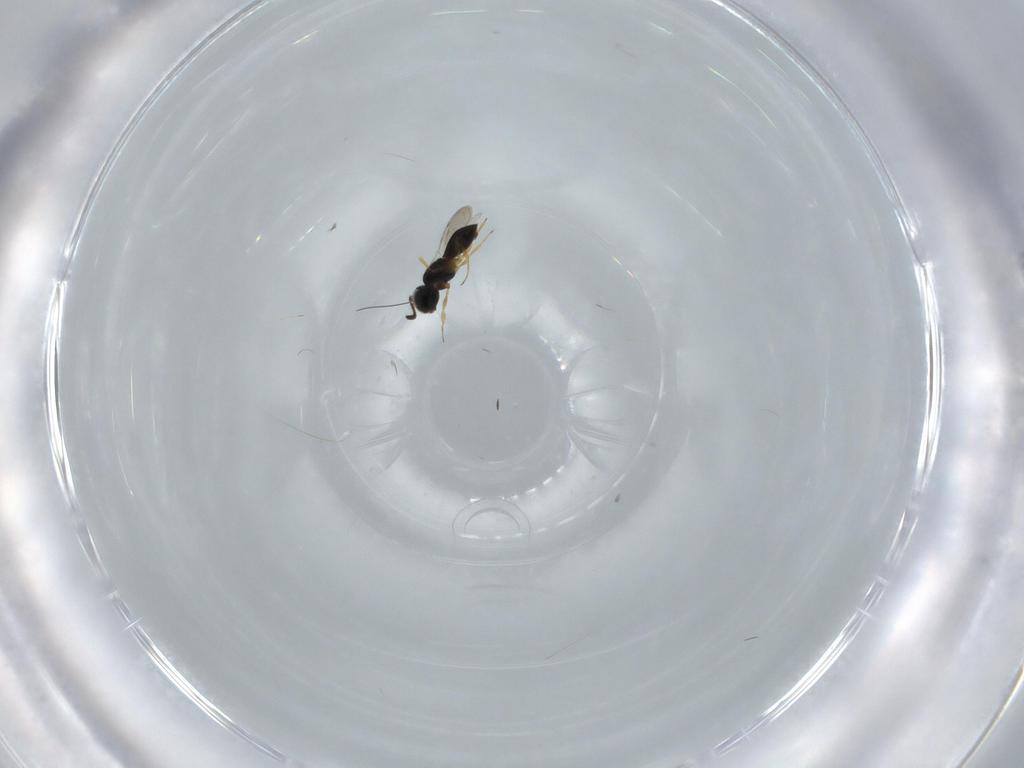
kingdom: Animalia
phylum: Arthropoda
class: Insecta
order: Hymenoptera
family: Scelionidae
